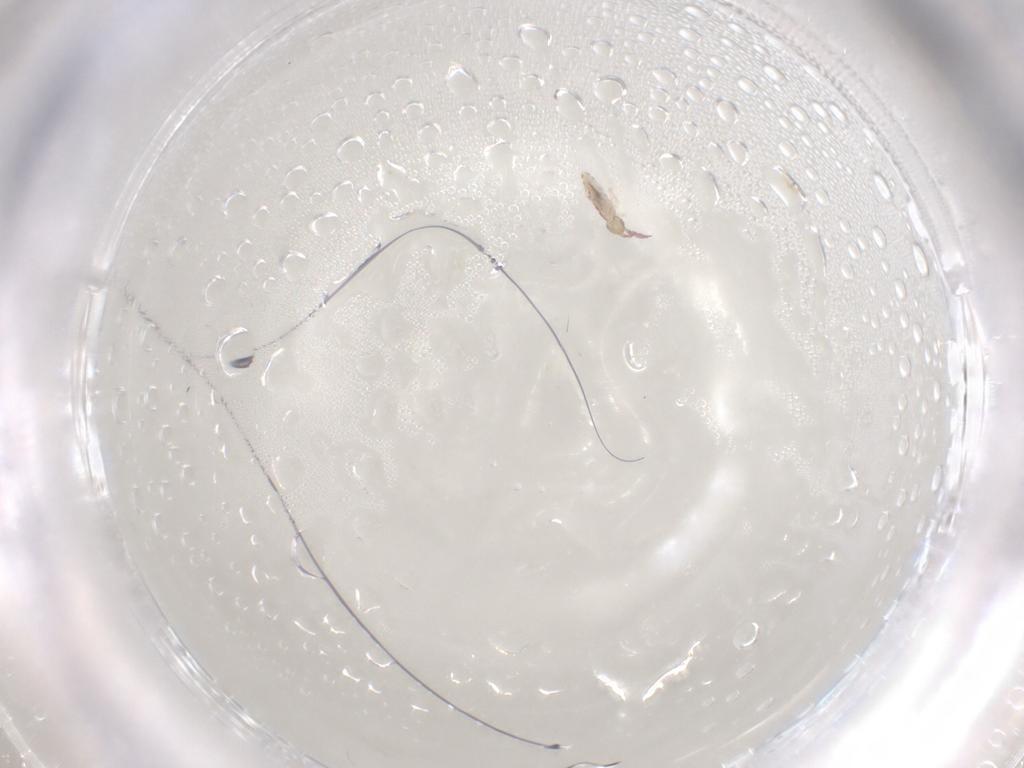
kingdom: Animalia
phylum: Arthropoda
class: Collembola
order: Entomobryomorpha
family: Entomobryidae
